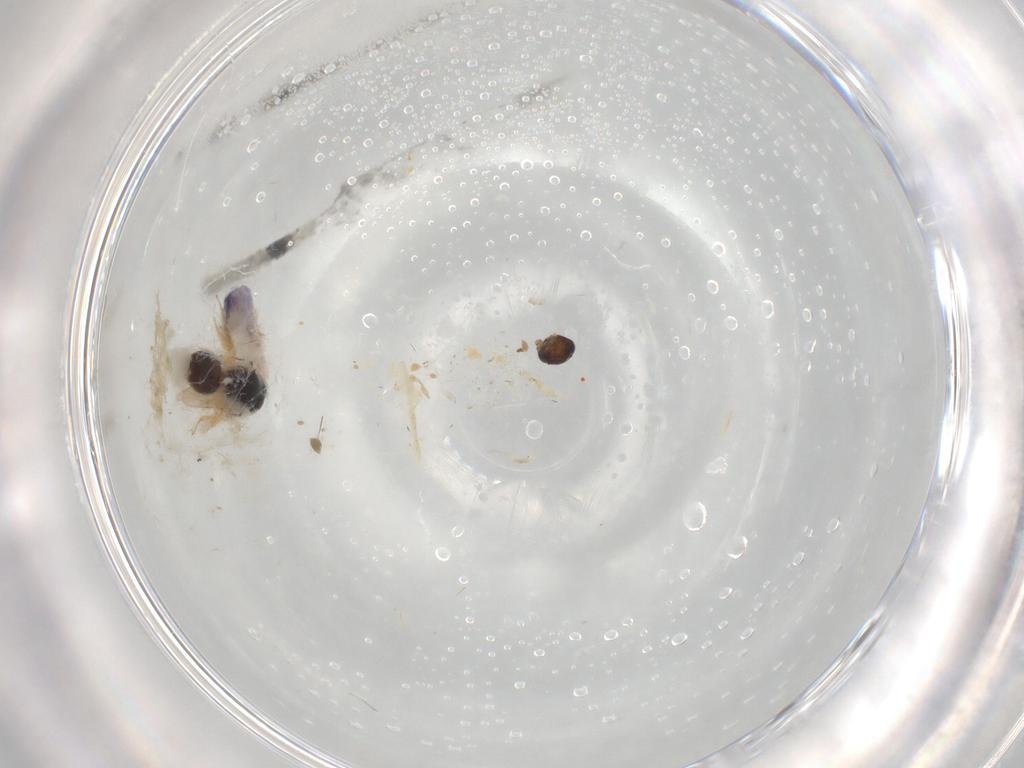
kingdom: Animalia
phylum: Arthropoda
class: Insecta
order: Hymenoptera
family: Scelionidae
